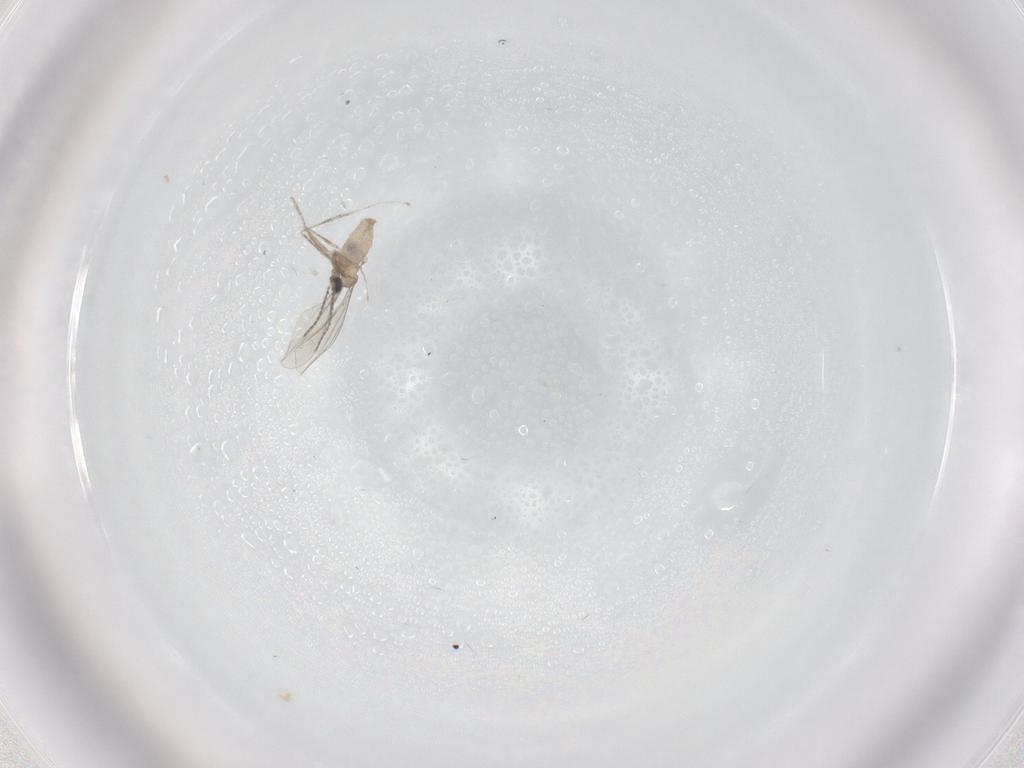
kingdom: Animalia
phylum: Arthropoda
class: Insecta
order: Diptera
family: Cecidomyiidae
